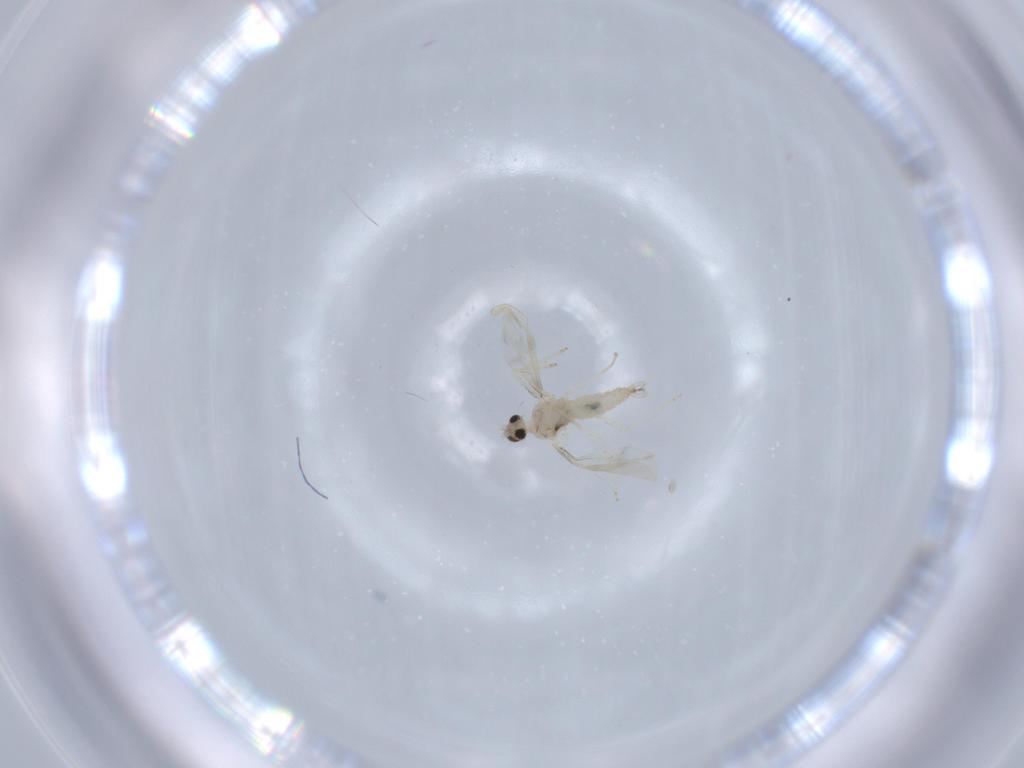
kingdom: Animalia
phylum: Arthropoda
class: Insecta
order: Diptera
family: Cecidomyiidae
